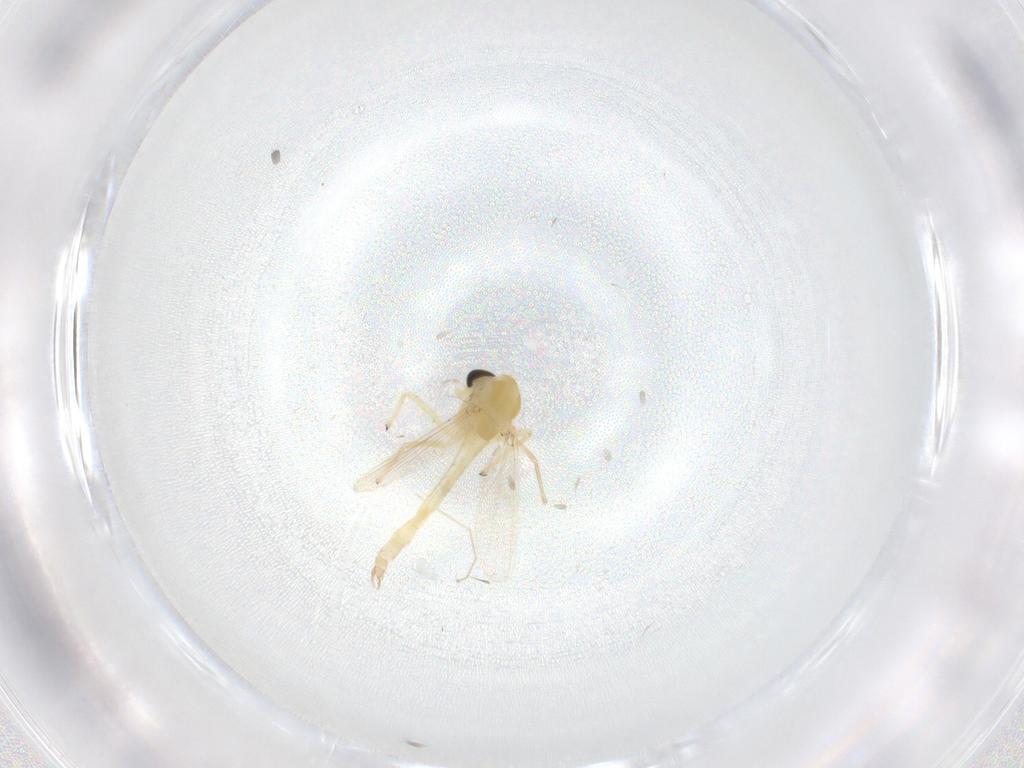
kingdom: Animalia
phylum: Arthropoda
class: Insecta
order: Diptera
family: Chironomidae
